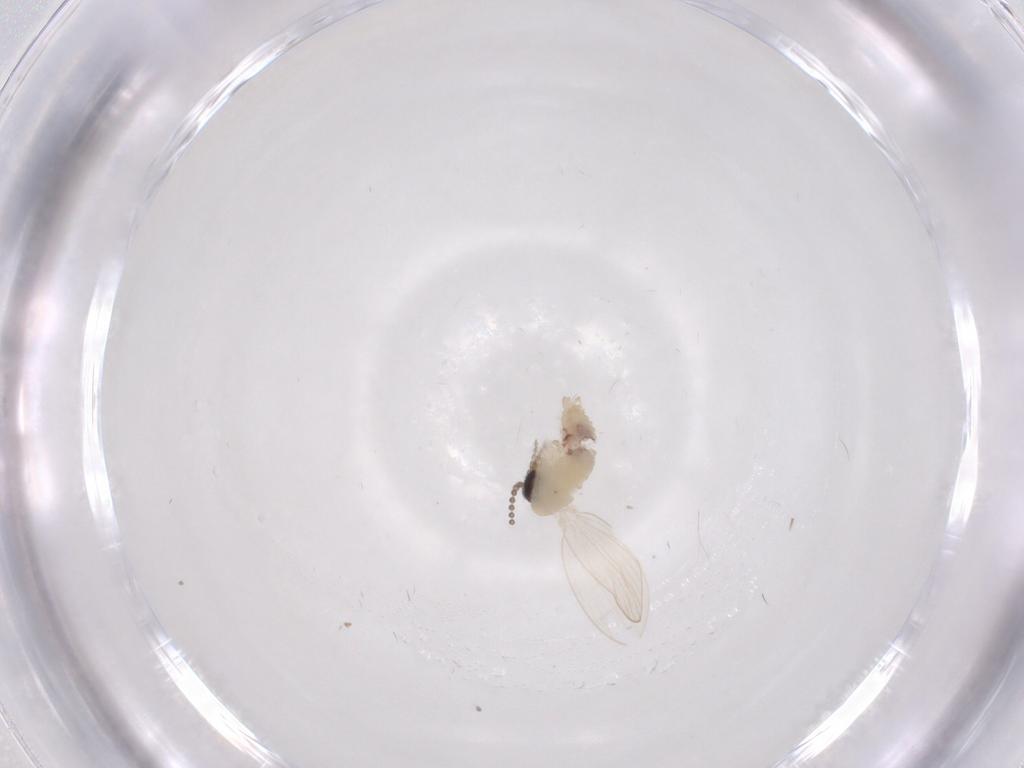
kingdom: Animalia
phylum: Arthropoda
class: Insecta
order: Diptera
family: Psychodidae
